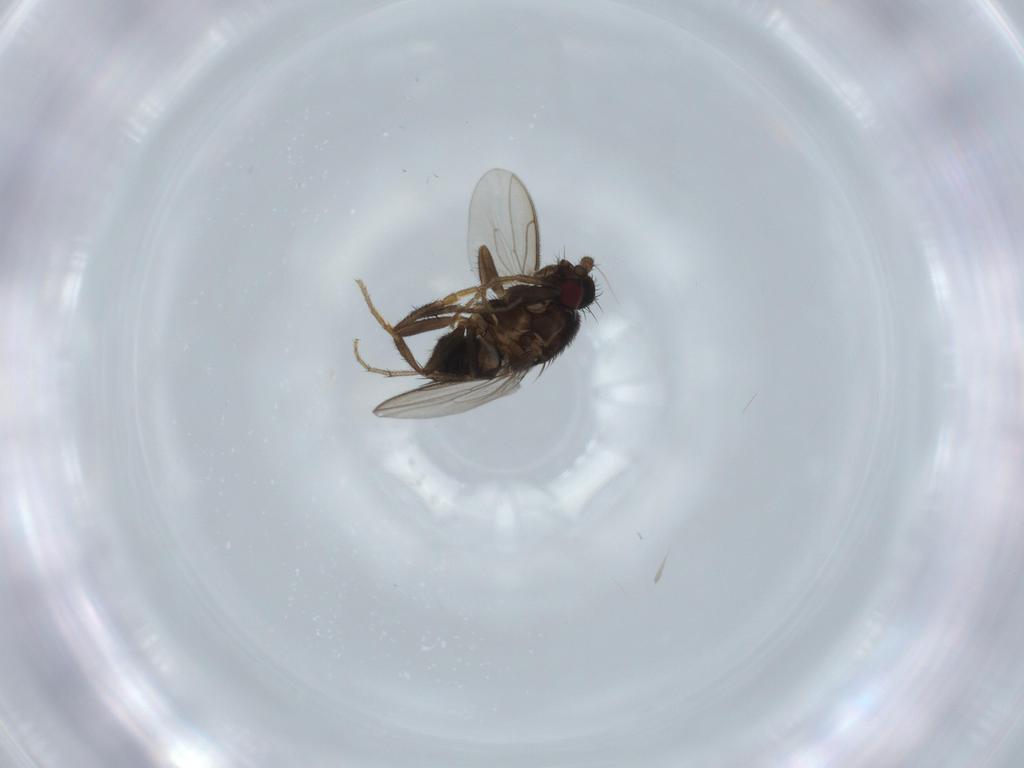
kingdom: Animalia
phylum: Arthropoda
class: Insecta
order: Diptera
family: Sphaeroceridae
